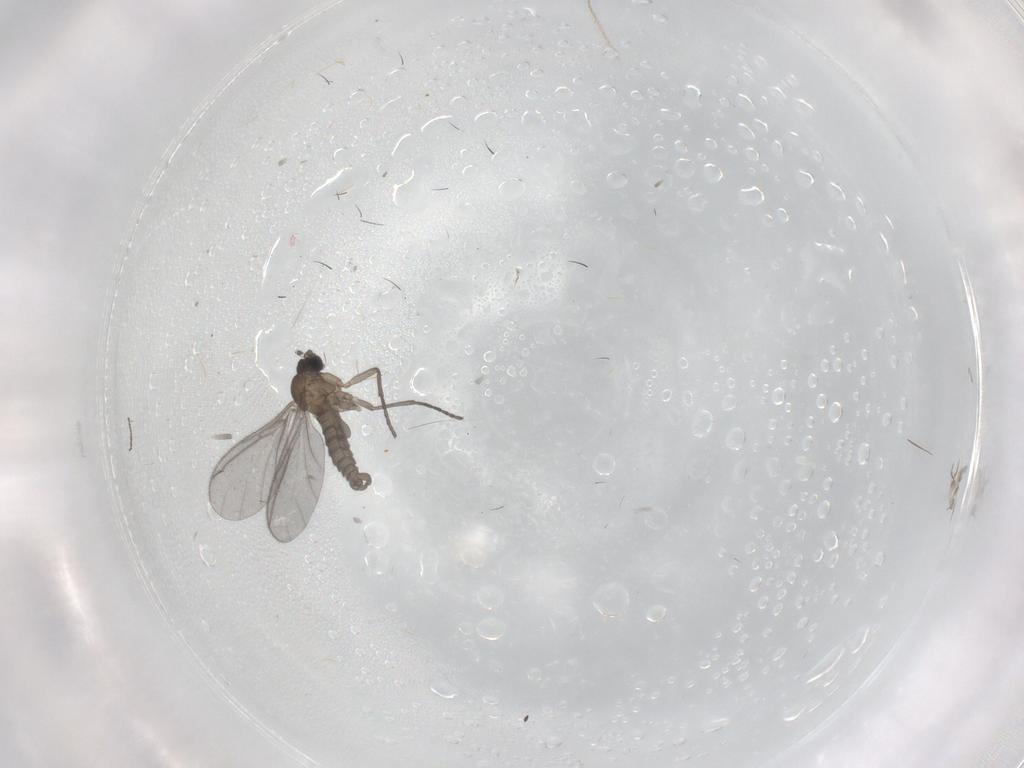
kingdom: Animalia
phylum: Arthropoda
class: Insecta
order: Diptera
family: Sciaridae
